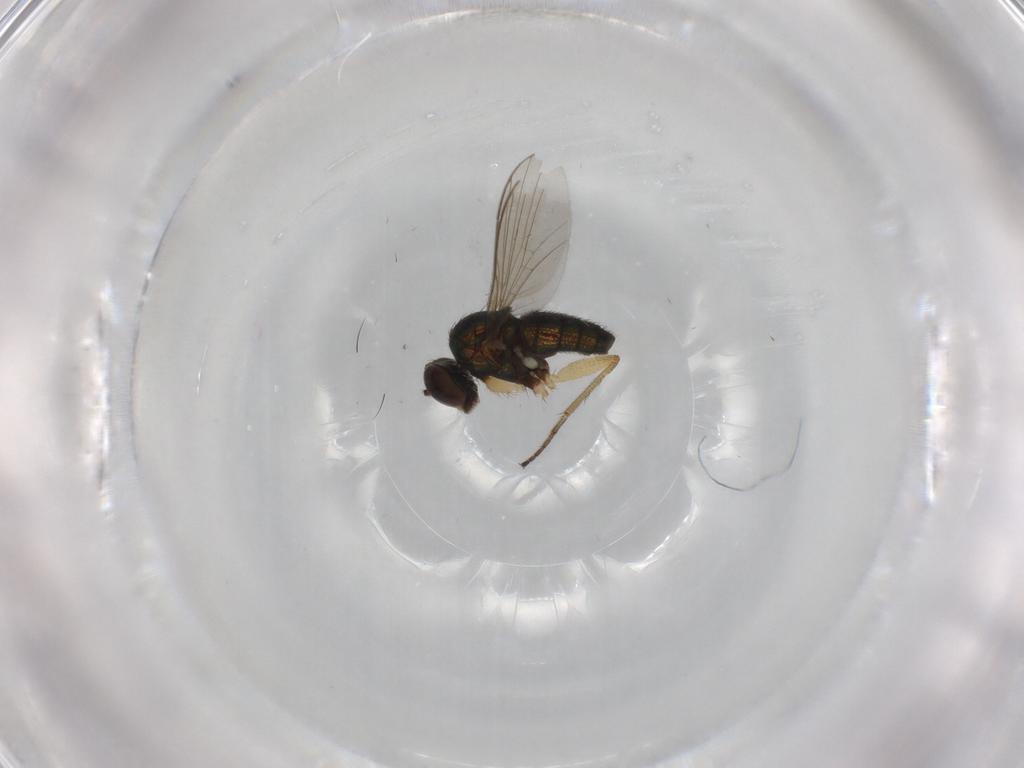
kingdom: Animalia
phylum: Arthropoda
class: Insecta
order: Diptera
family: Dolichopodidae
